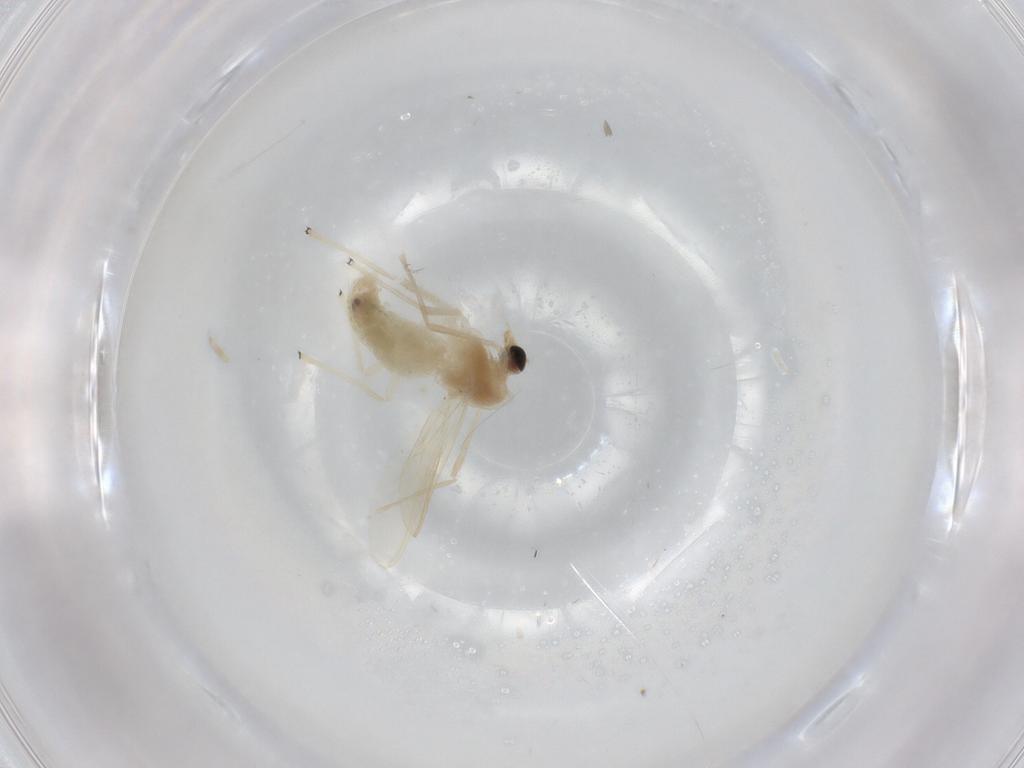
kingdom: Animalia
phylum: Arthropoda
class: Insecta
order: Diptera
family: Chironomidae
